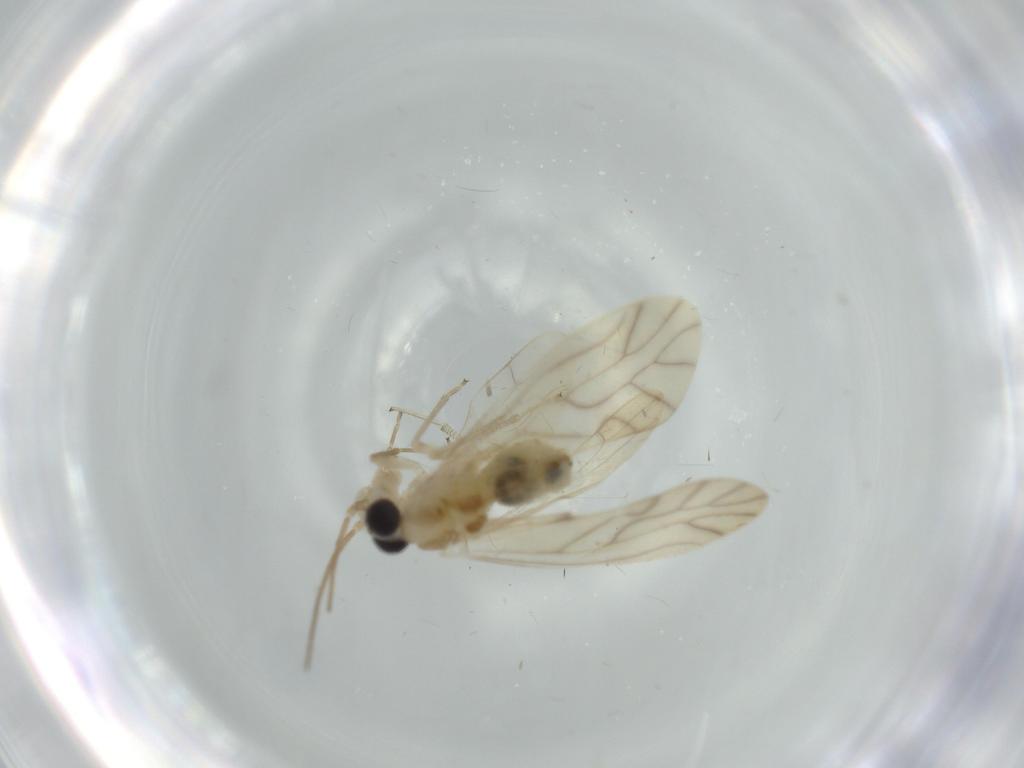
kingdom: Animalia
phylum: Arthropoda
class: Insecta
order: Psocodea
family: Caeciliusidae
